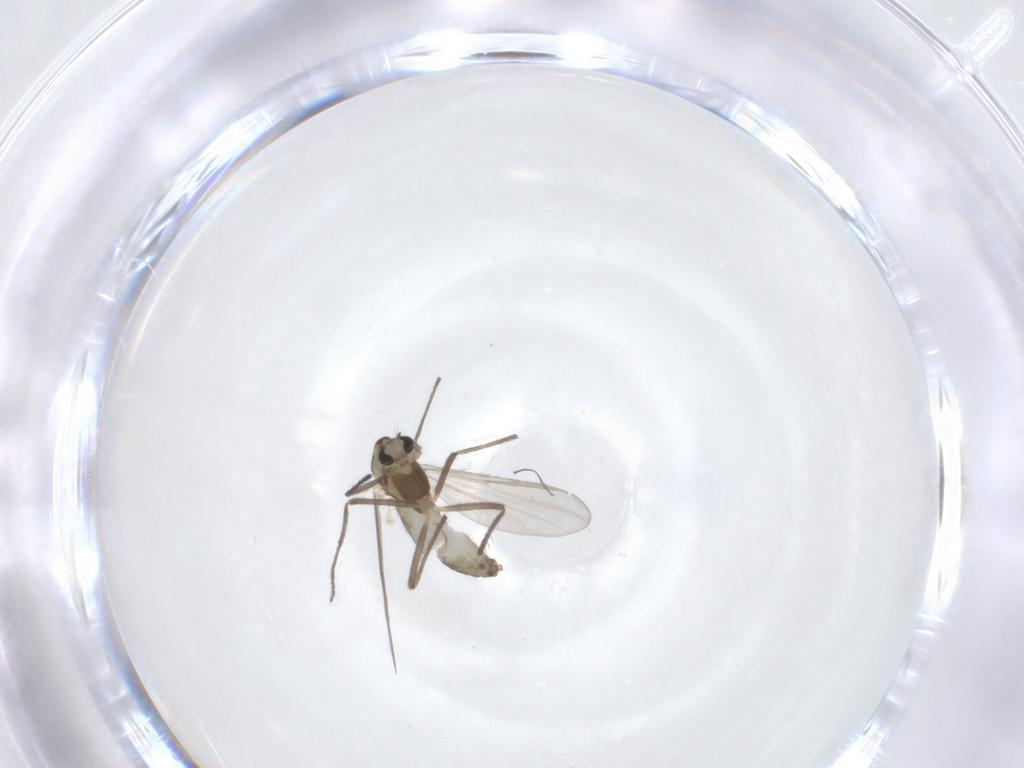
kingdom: Animalia
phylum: Arthropoda
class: Insecta
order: Diptera
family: Chironomidae
